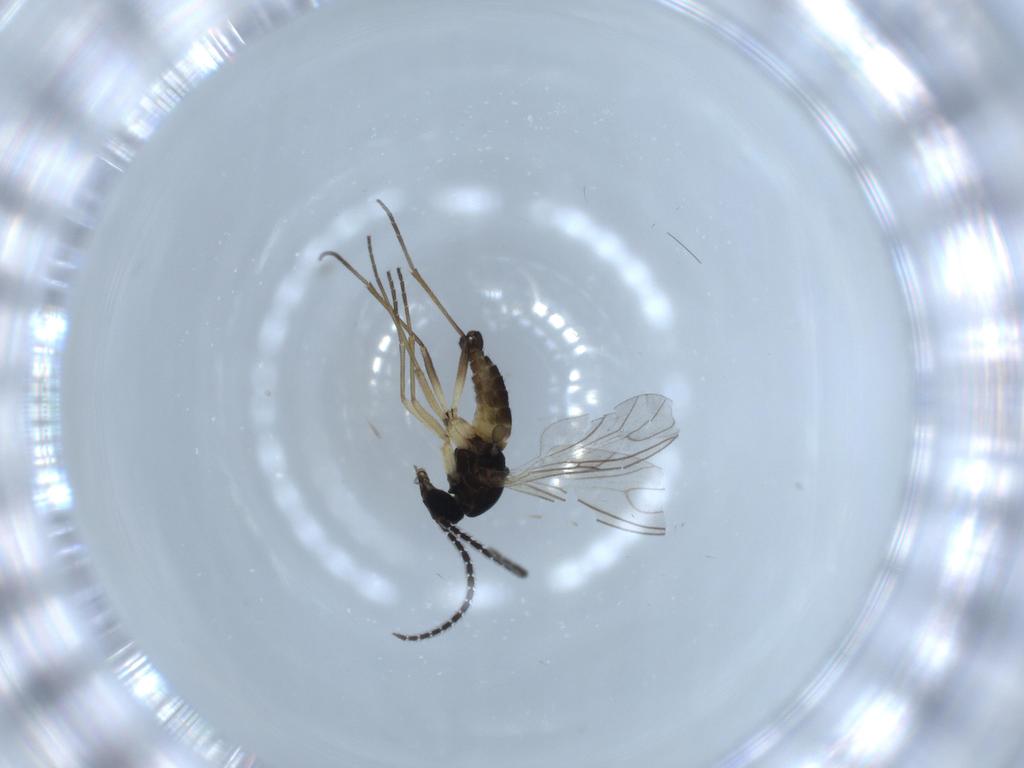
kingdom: Animalia
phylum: Arthropoda
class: Insecta
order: Diptera
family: Sciaridae
